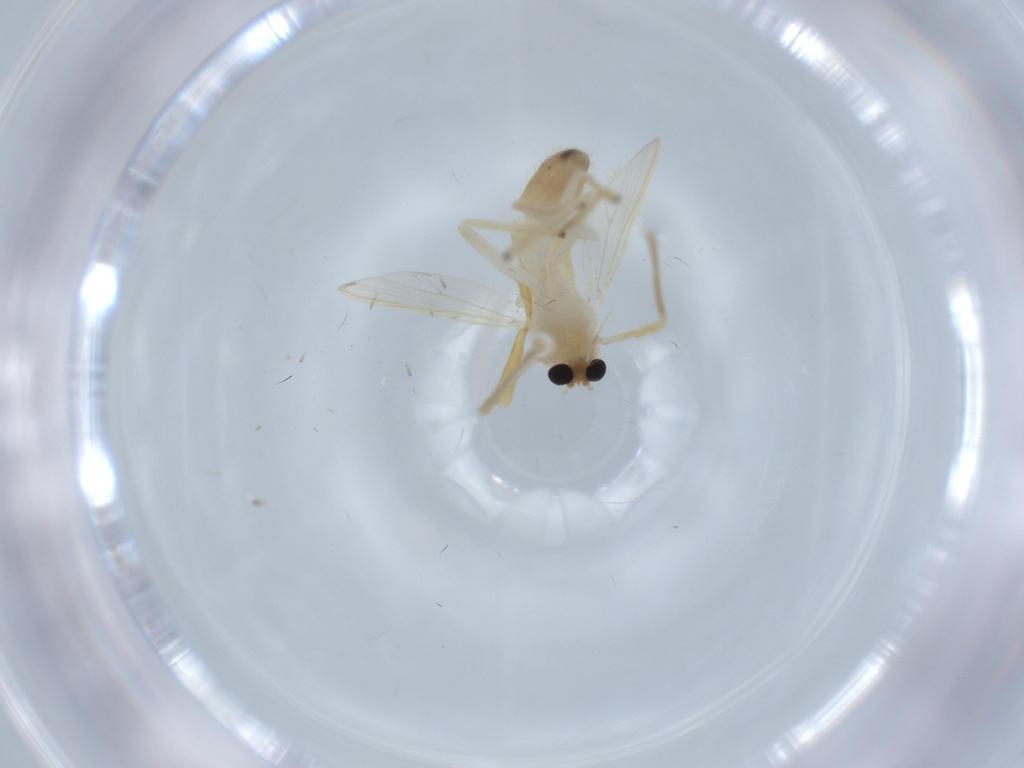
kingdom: Animalia
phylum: Arthropoda
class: Insecta
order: Diptera
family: Chironomidae
